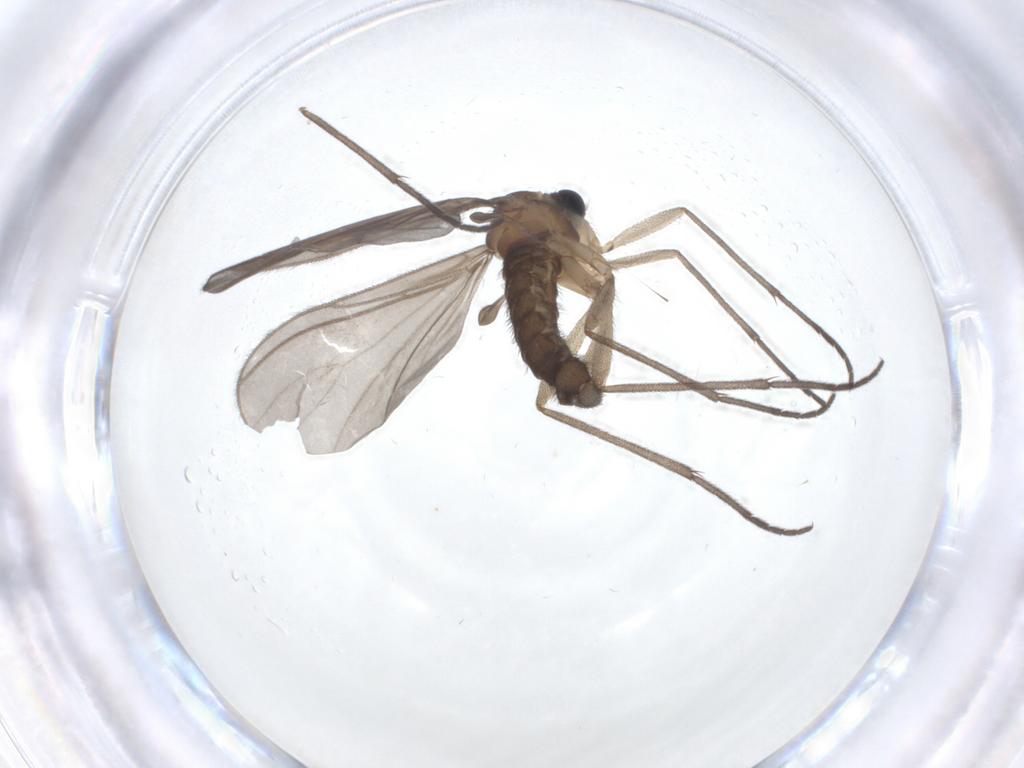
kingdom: Animalia
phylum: Arthropoda
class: Insecta
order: Diptera
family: Sciaridae
